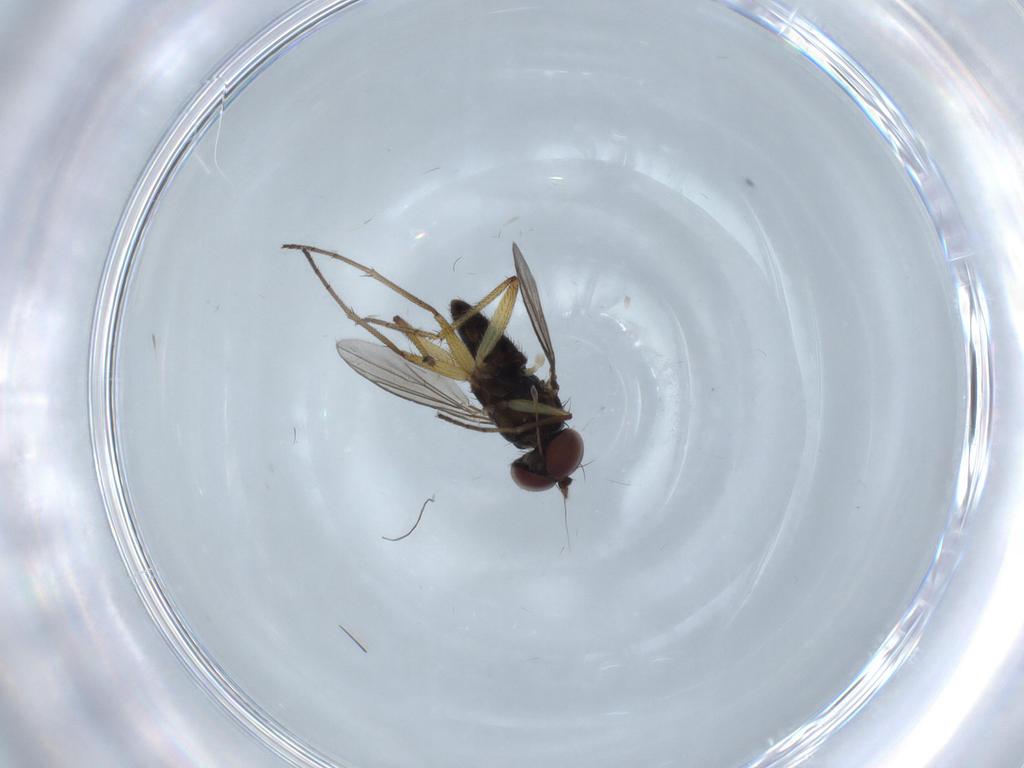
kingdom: Animalia
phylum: Arthropoda
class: Insecta
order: Diptera
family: Dolichopodidae
